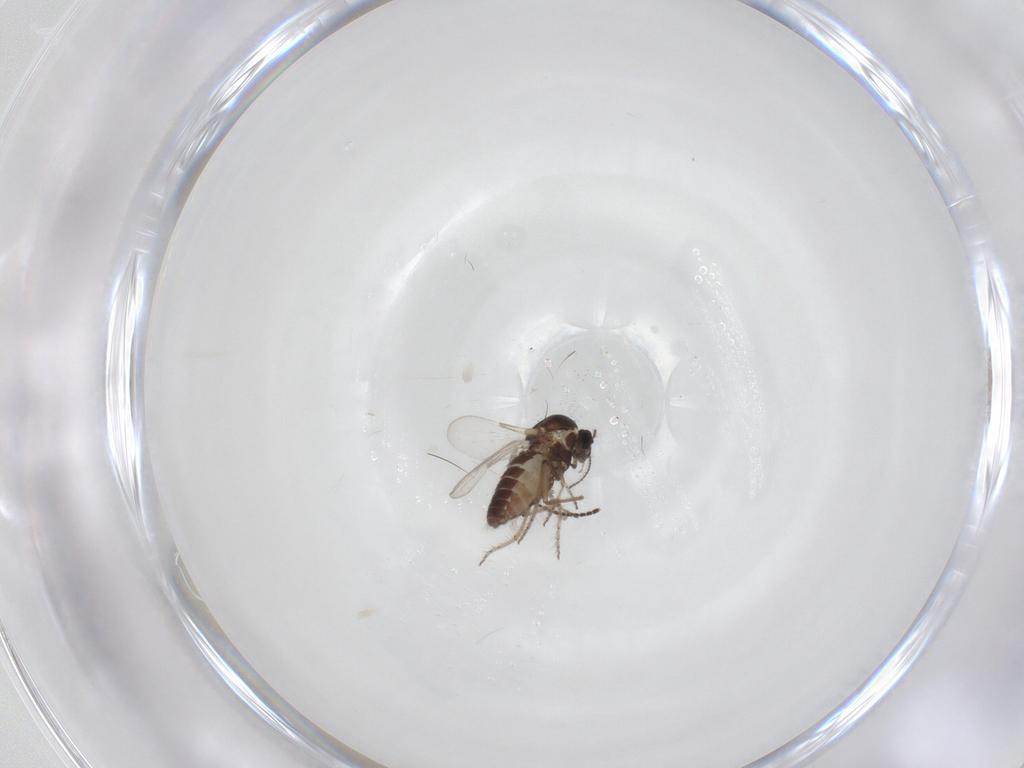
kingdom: Animalia
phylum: Arthropoda
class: Insecta
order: Diptera
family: Ceratopogonidae
